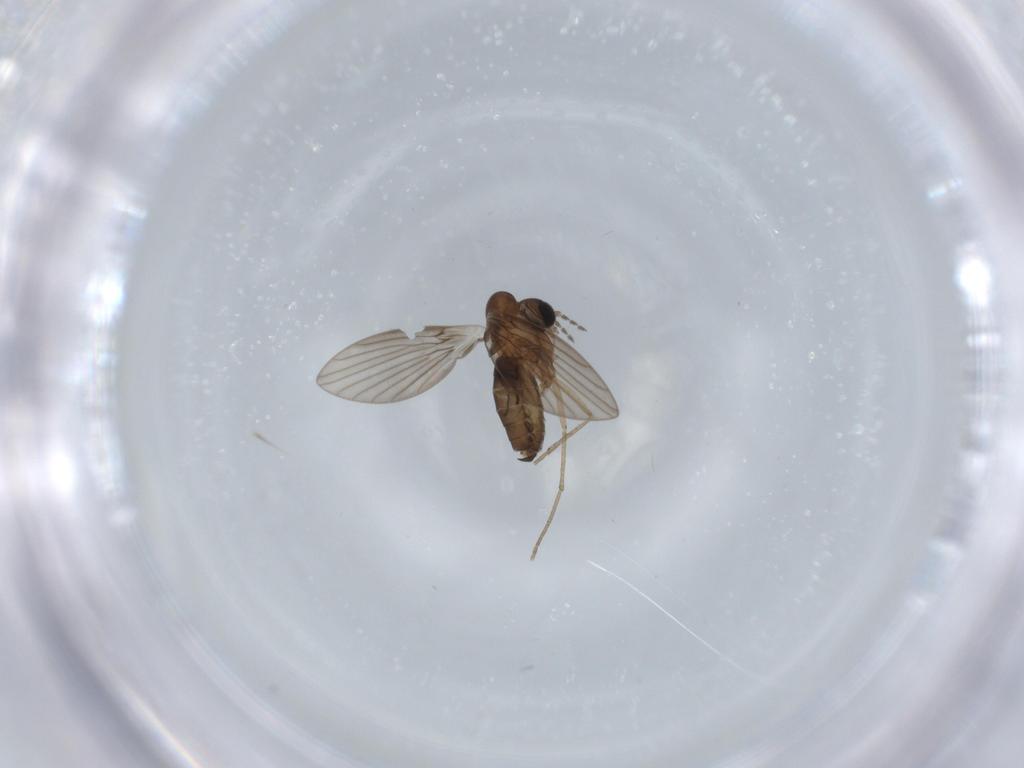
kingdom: Animalia
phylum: Arthropoda
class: Insecta
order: Diptera
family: Psychodidae
